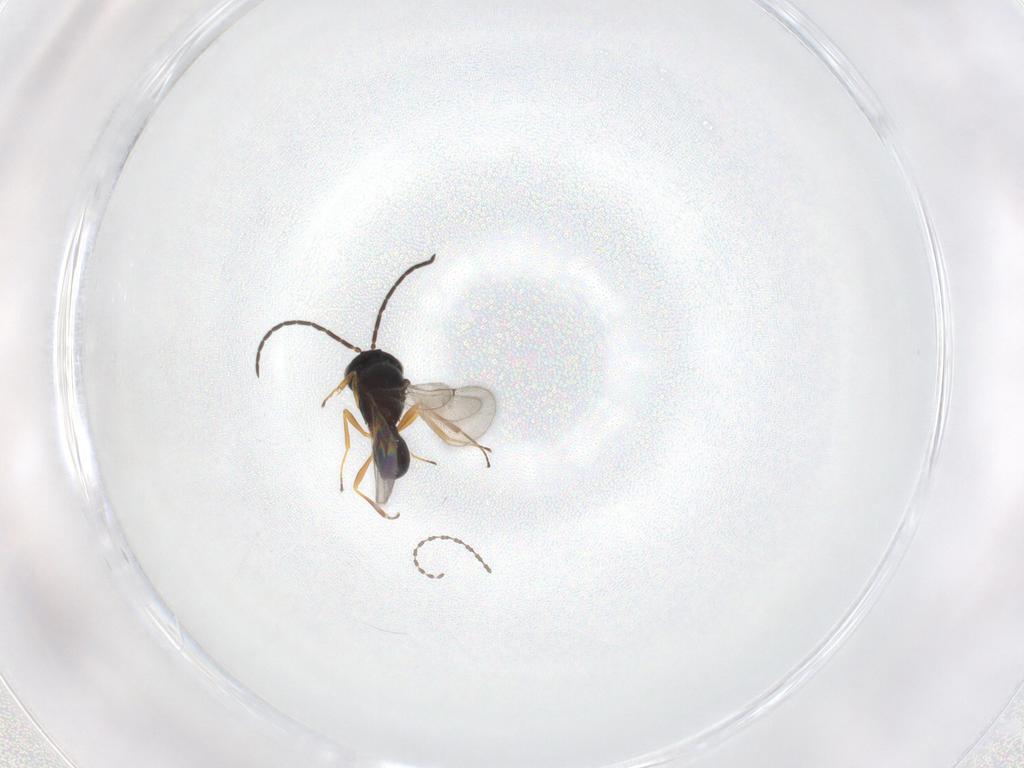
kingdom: Animalia
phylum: Arthropoda
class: Insecta
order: Hymenoptera
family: Scelionidae
